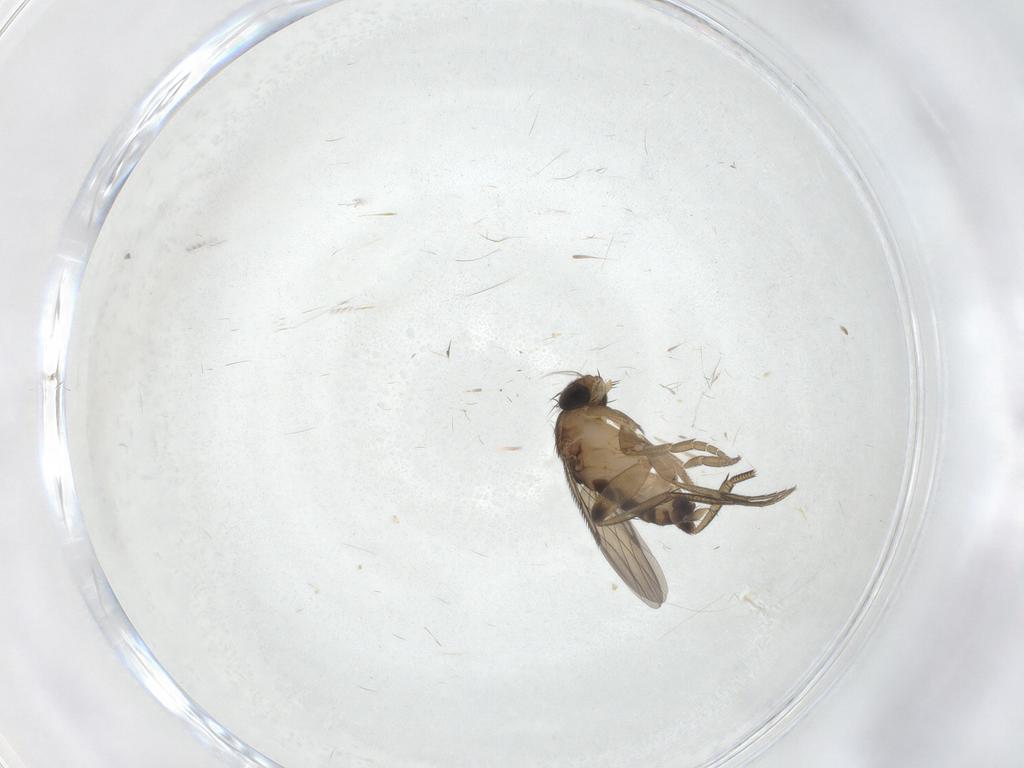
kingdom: Animalia
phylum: Arthropoda
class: Insecta
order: Diptera
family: Phoridae
